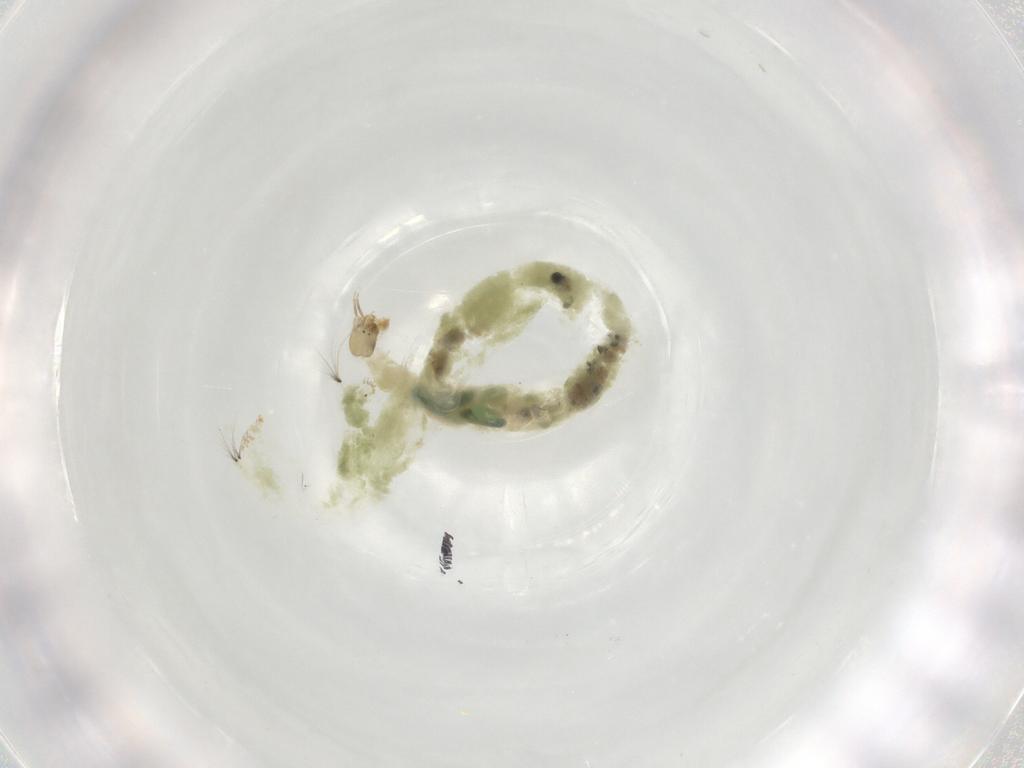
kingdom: Animalia
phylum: Arthropoda
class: Insecta
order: Diptera
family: Chironomidae
